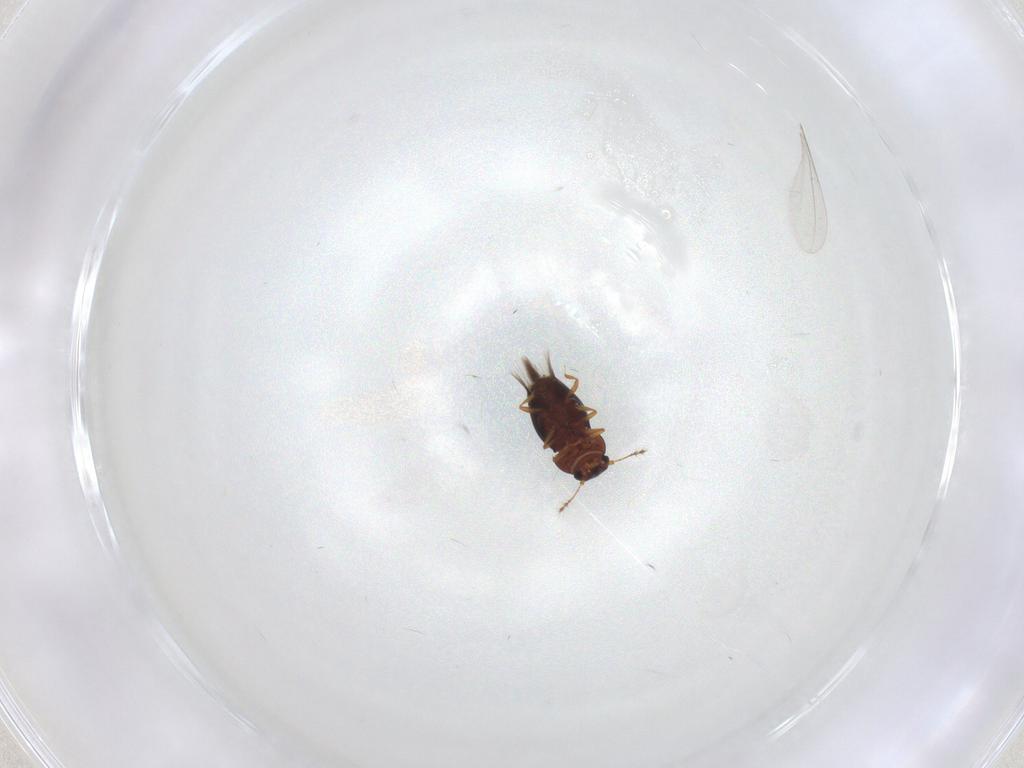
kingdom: Animalia
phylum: Arthropoda
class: Insecta
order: Coleoptera
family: Ptiliidae
